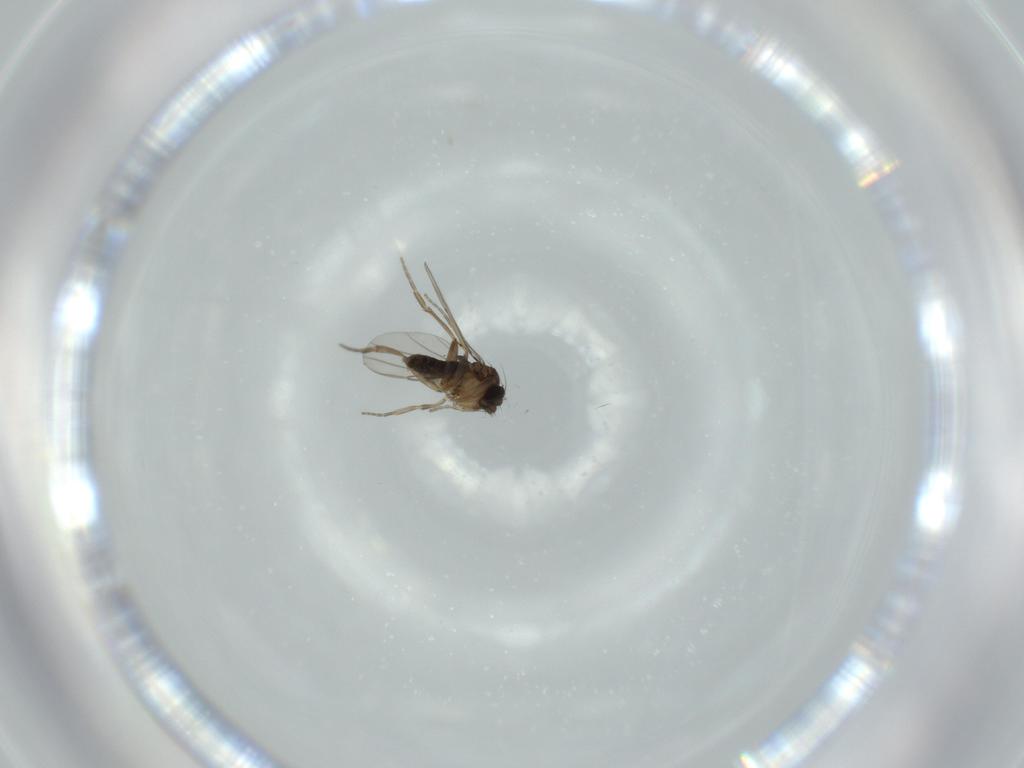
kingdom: Animalia
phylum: Arthropoda
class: Insecta
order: Diptera
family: Phoridae
